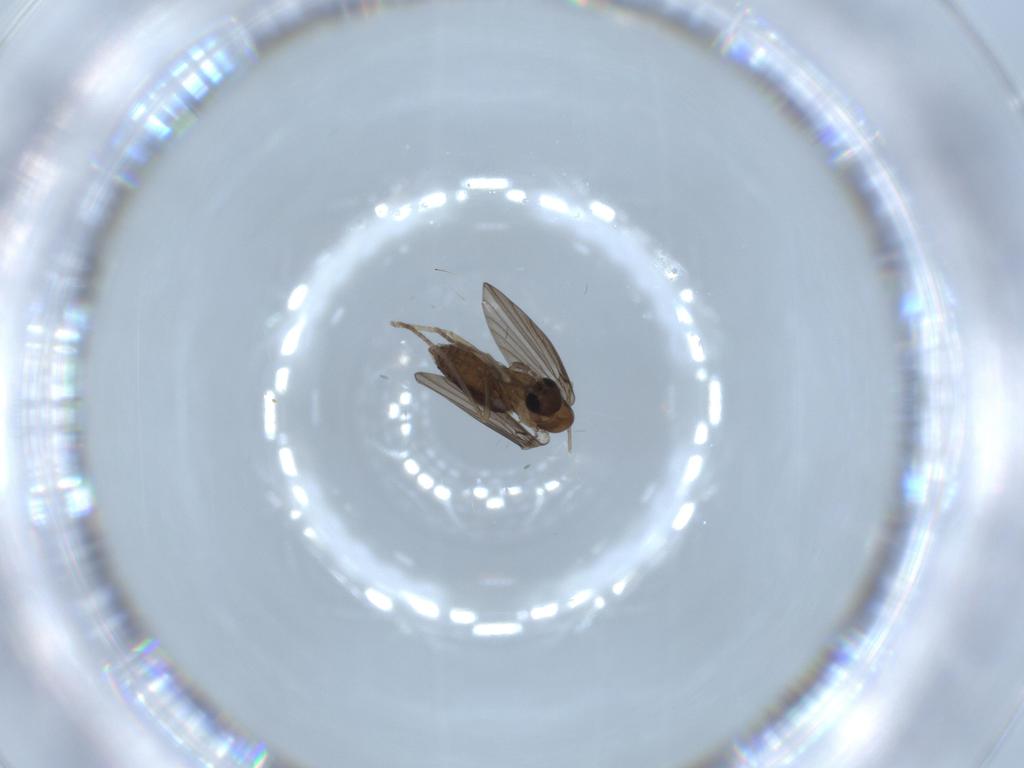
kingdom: Animalia
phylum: Arthropoda
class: Insecta
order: Diptera
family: Psychodidae
